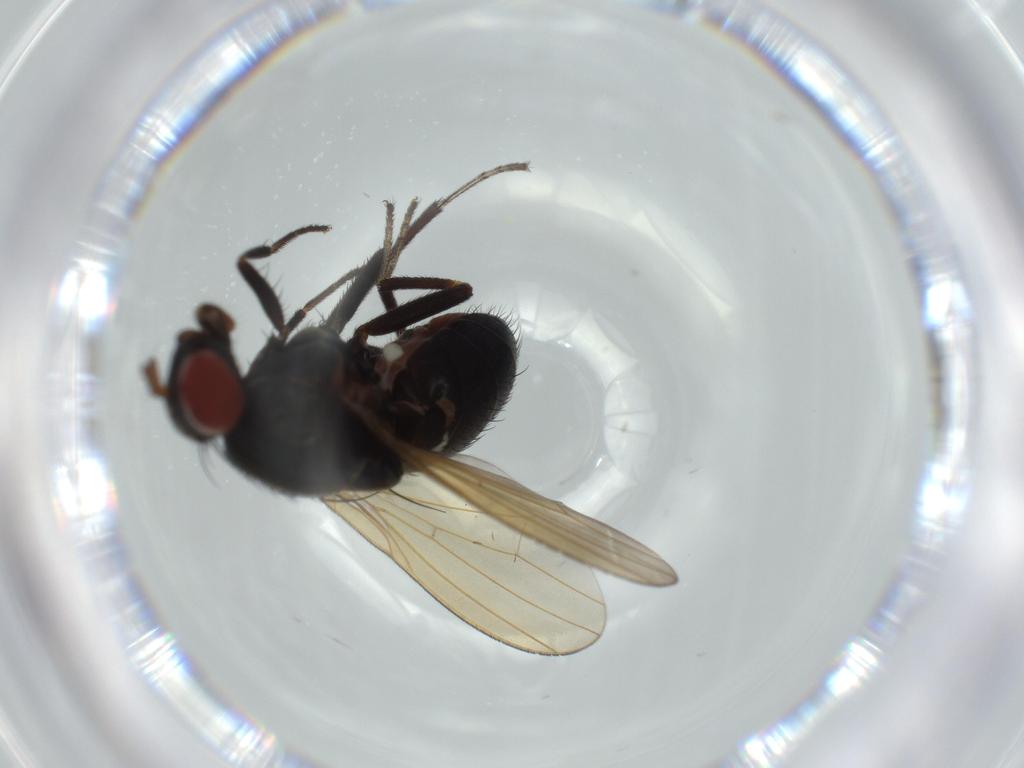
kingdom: Animalia
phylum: Arthropoda
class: Insecta
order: Diptera
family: Lauxaniidae
